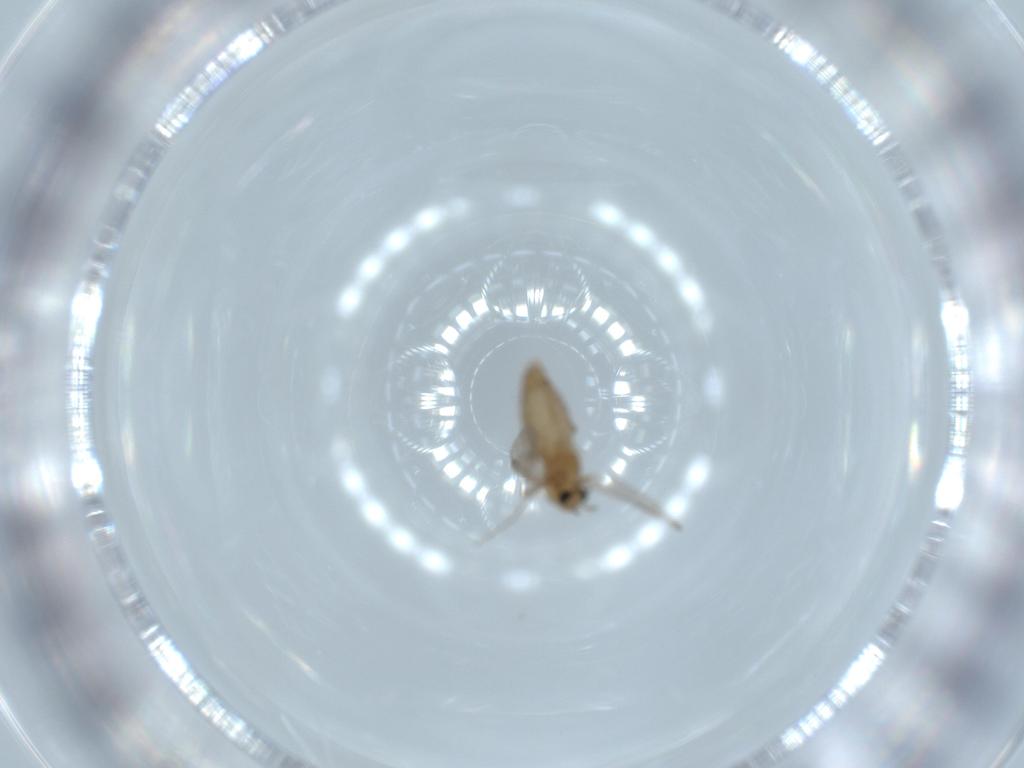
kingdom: Animalia
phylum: Arthropoda
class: Insecta
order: Diptera
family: Chironomidae
